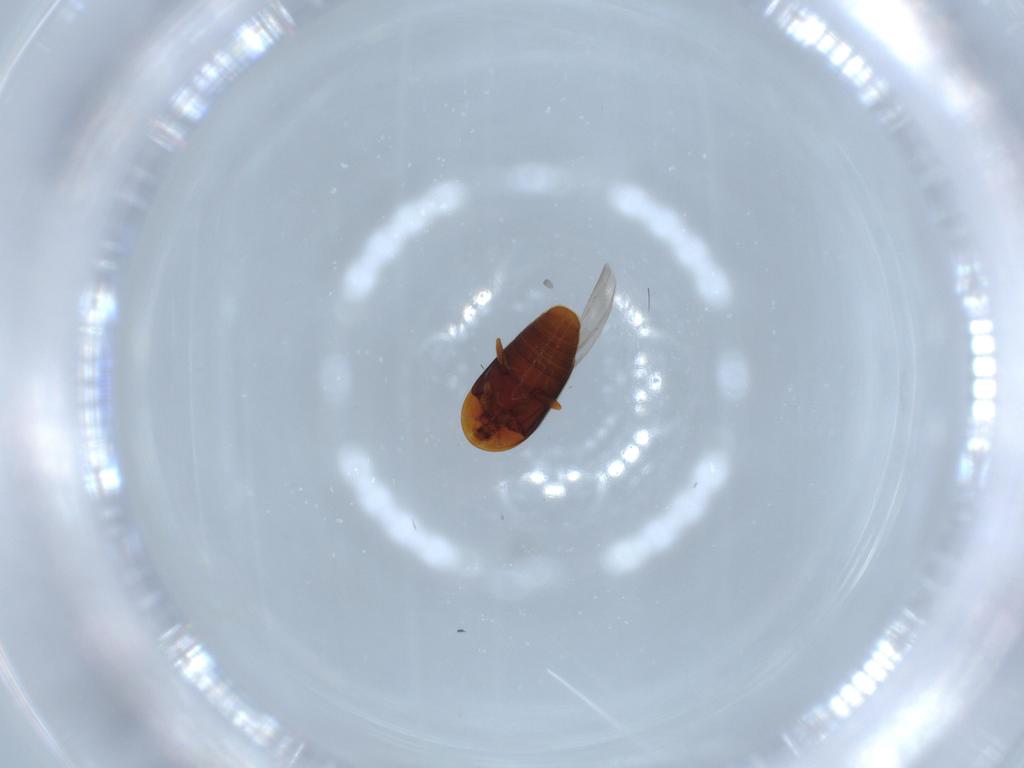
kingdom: Animalia
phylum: Arthropoda
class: Insecta
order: Coleoptera
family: Corylophidae
